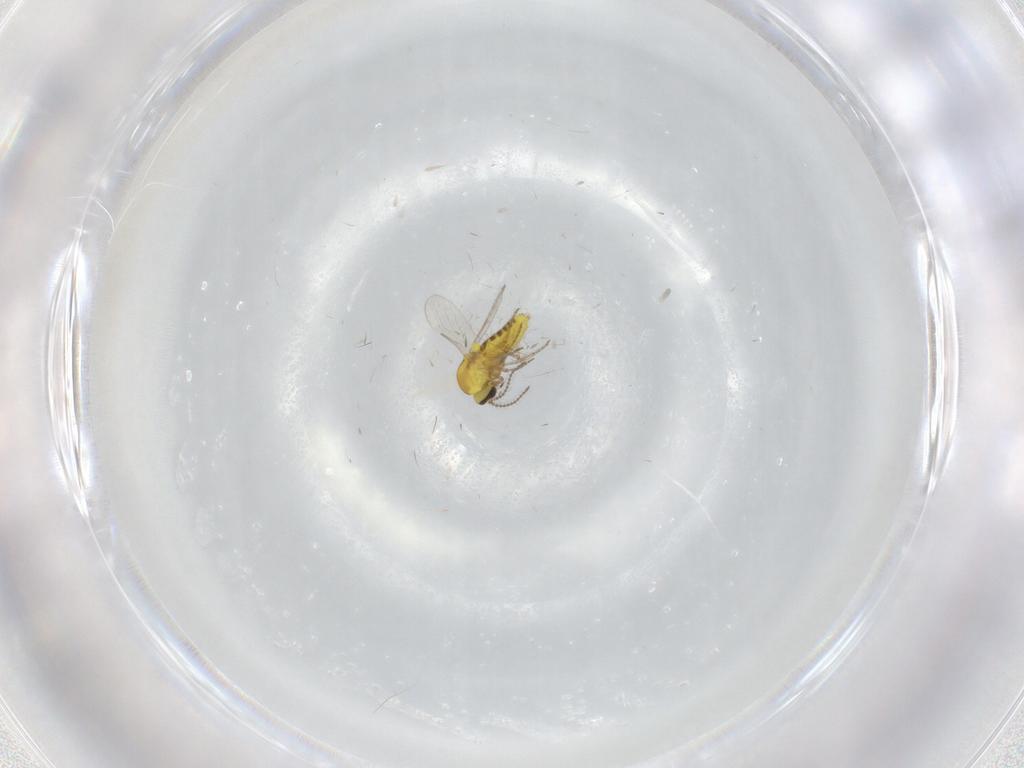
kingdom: Animalia
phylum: Arthropoda
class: Insecta
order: Diptera
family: Ceratopogonidae
